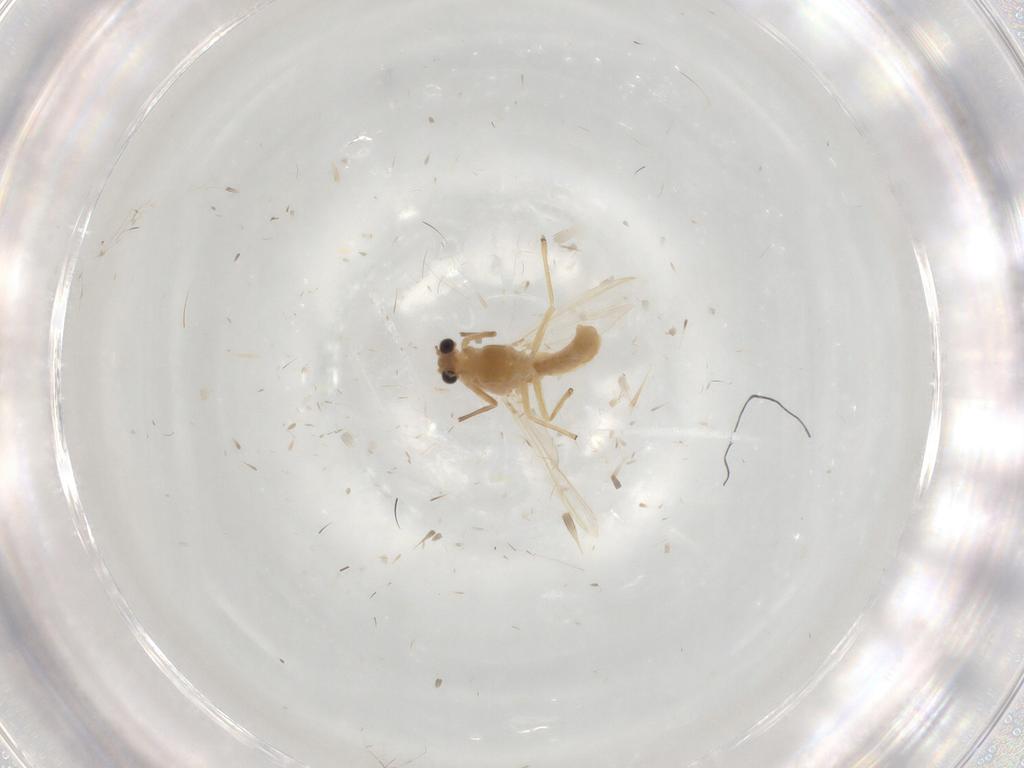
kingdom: Animalia
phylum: Arthropoda
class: Insecta
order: Diptera
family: Chironomidae
